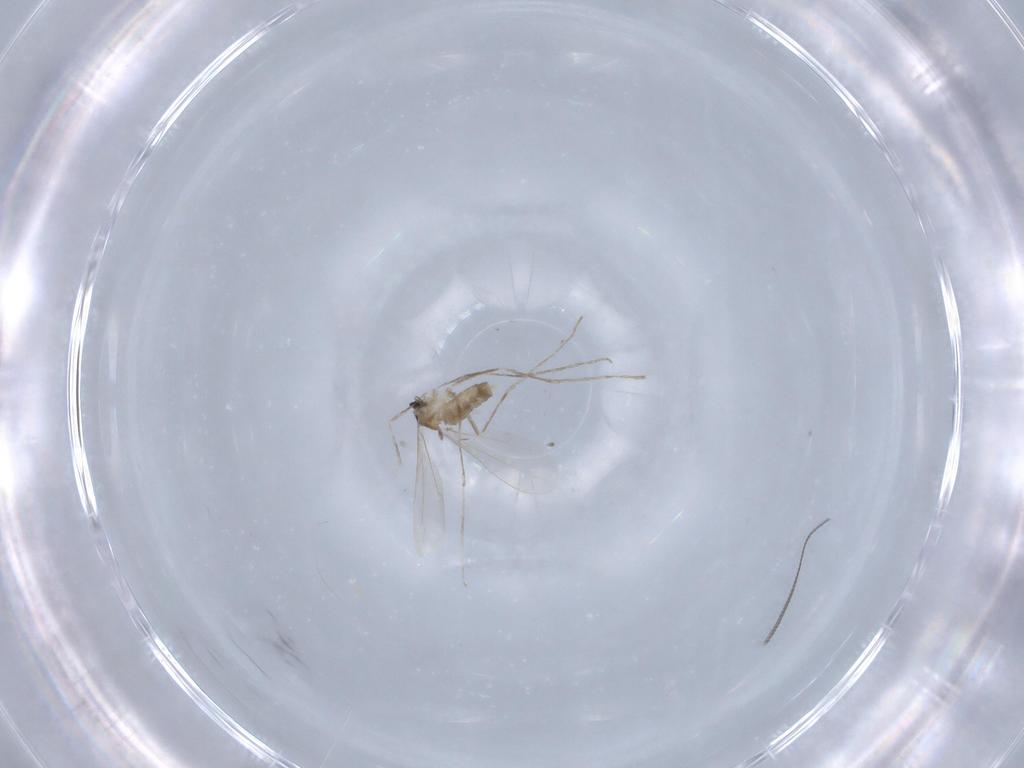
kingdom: Animalia
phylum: Arthropoda
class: Insecta
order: Diptera
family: Cecidomyiidae
